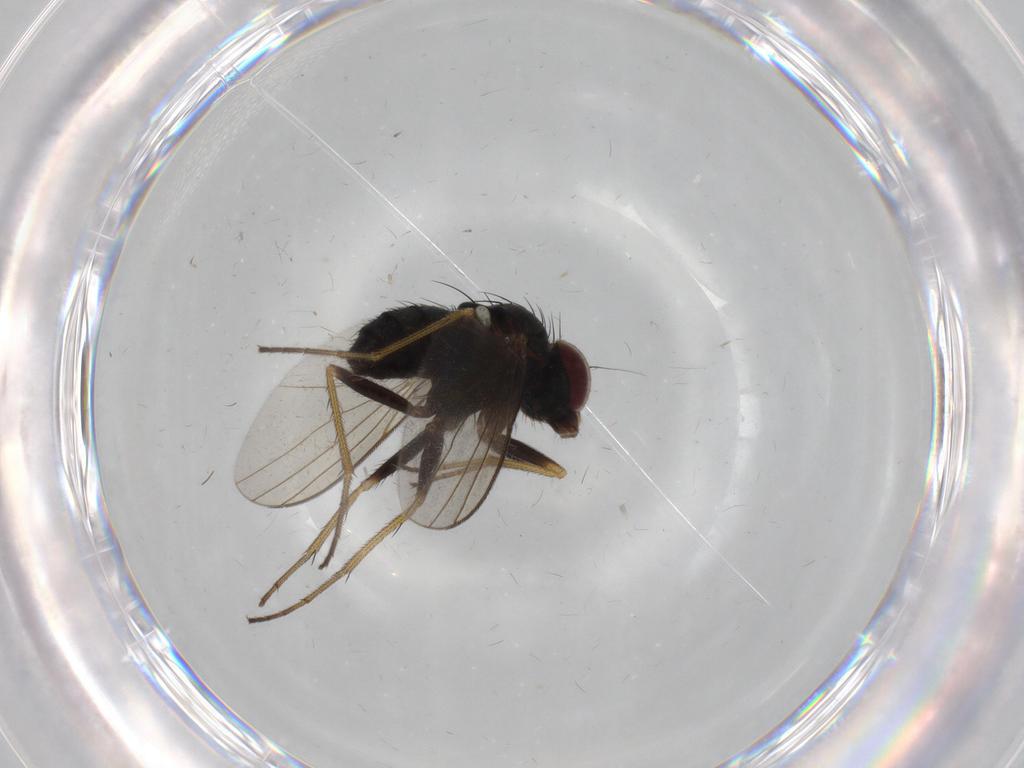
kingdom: Animalia
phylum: Arthropoda
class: Insecta
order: Diptera
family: Dolichopodidae
